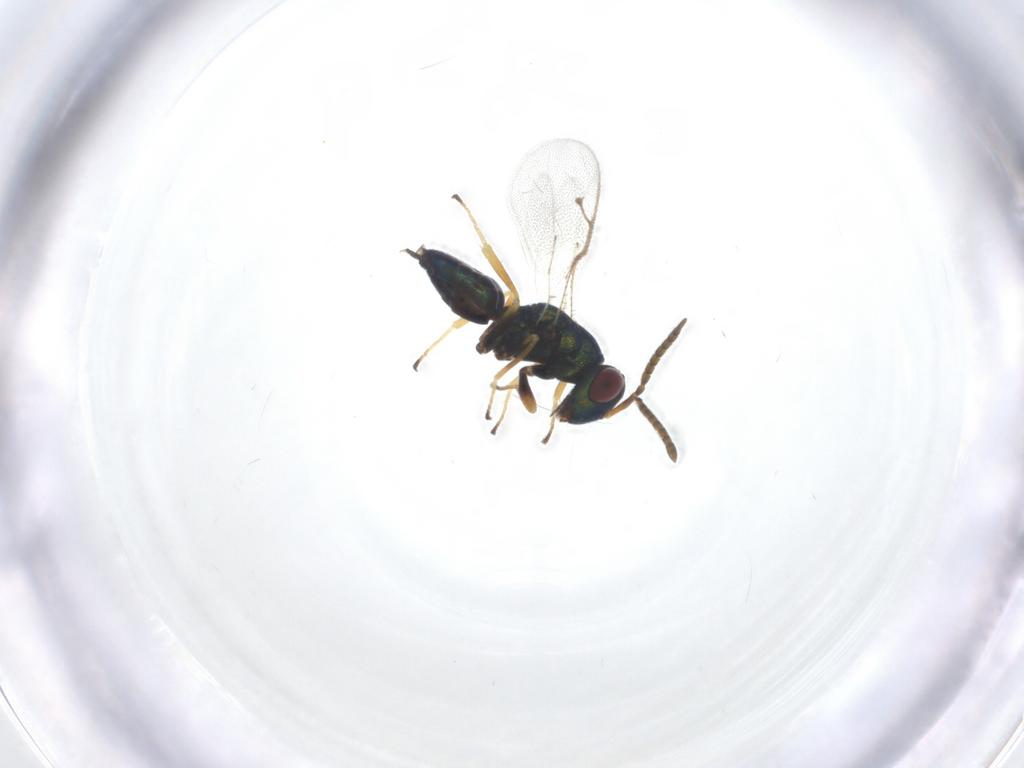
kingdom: Animalia
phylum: Arthropoda
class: Insecta
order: Hymenoptera
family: Pteromalidae
